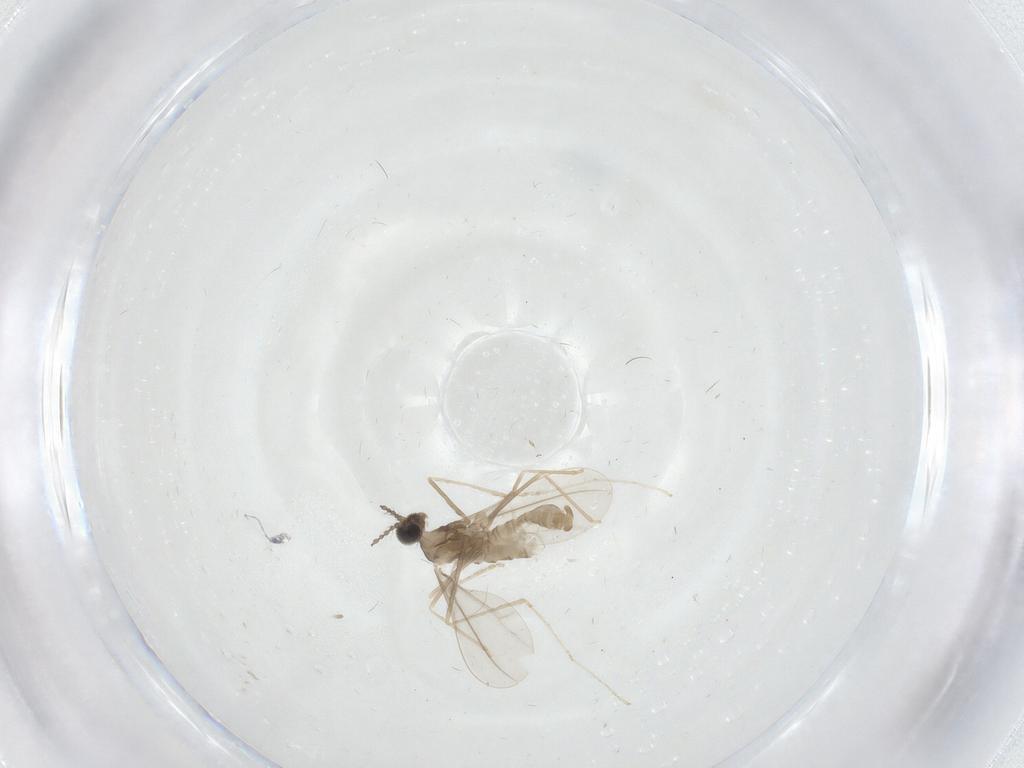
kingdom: Animalia
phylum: Arthropoda
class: Insecta
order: Diptera
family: Cecidomyiidae
